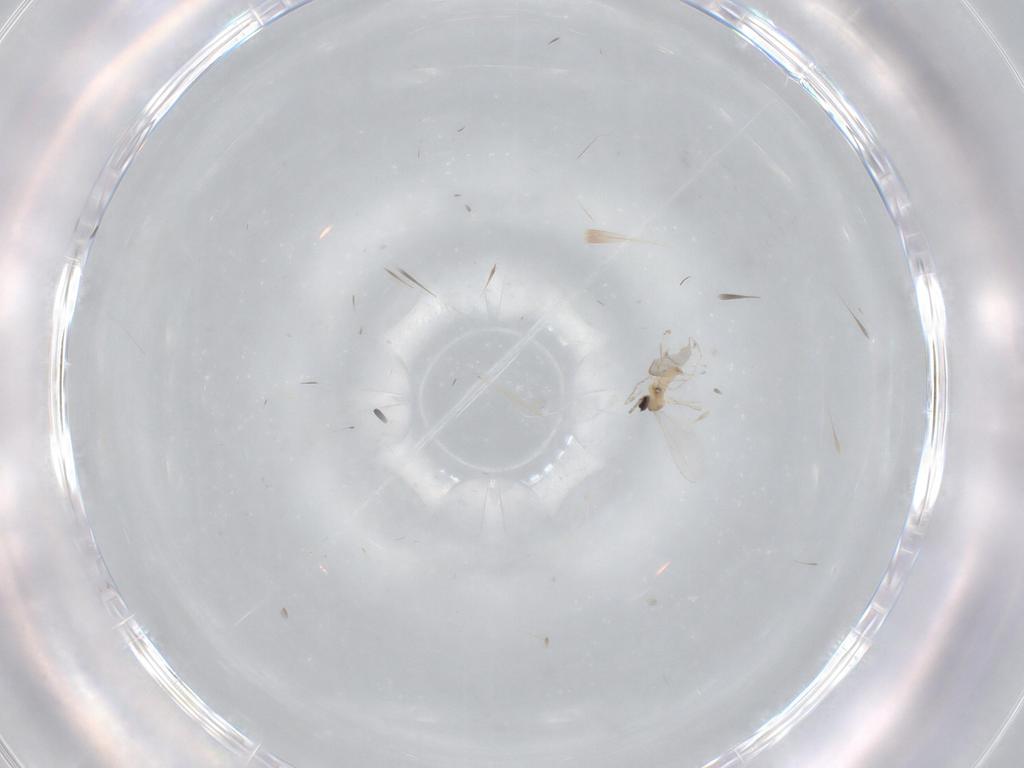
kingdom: Animalia
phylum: Arthropoda
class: Insecta
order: Diptera
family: Cecidomyiidae
